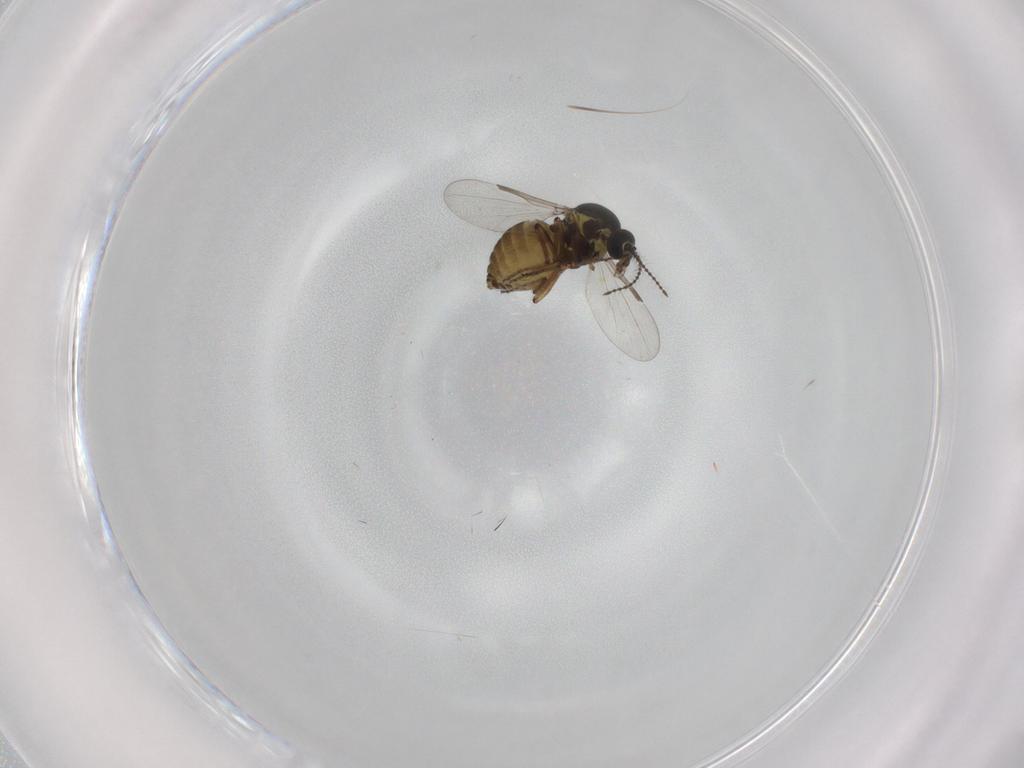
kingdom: Animalia
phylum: Arthropoda
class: Insecta
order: Diptera
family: Ceratopogonidae
